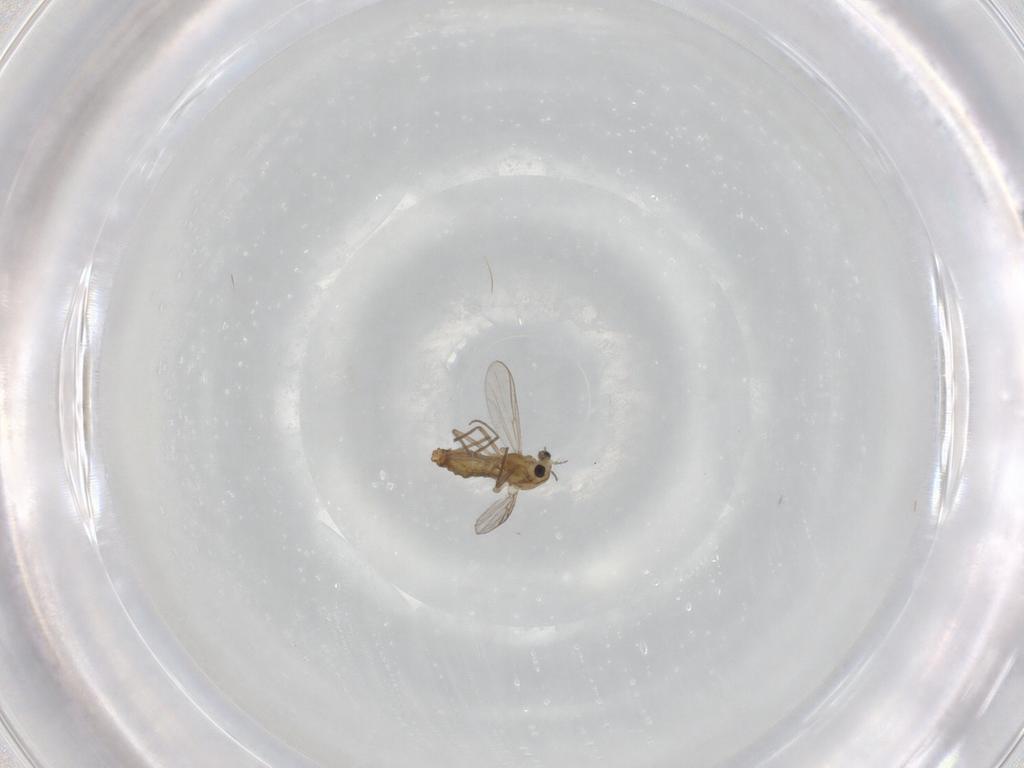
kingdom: Animalia
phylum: Arthropoda
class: Insecta
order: Diptera
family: Chironomidae
